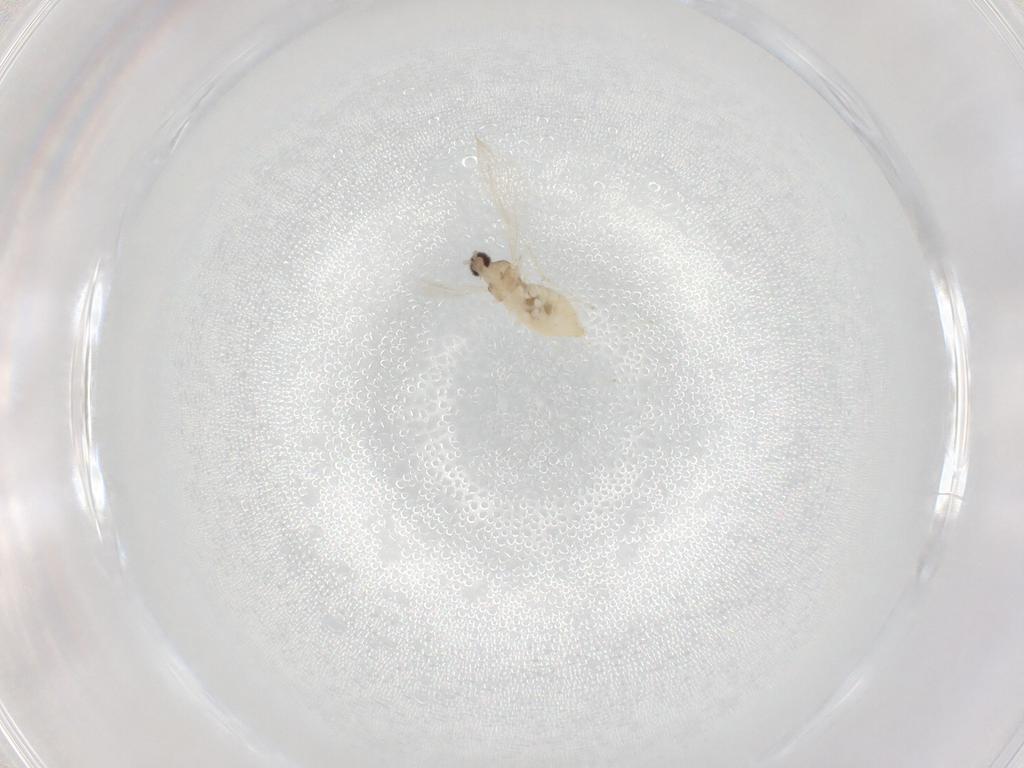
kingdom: Animalia
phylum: Arthropoda
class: Insecta
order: Diptera
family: Cecidomyiidae
